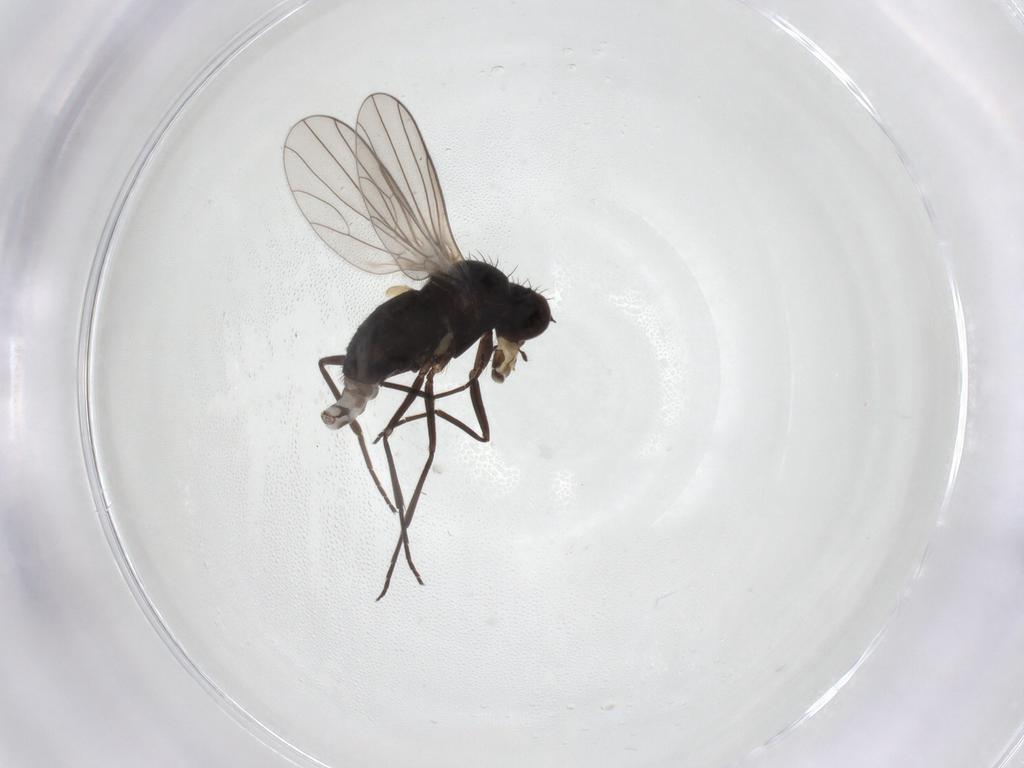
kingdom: Animalia
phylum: Arthropoda
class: Insecta
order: Diptera
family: Dolichopodidae
